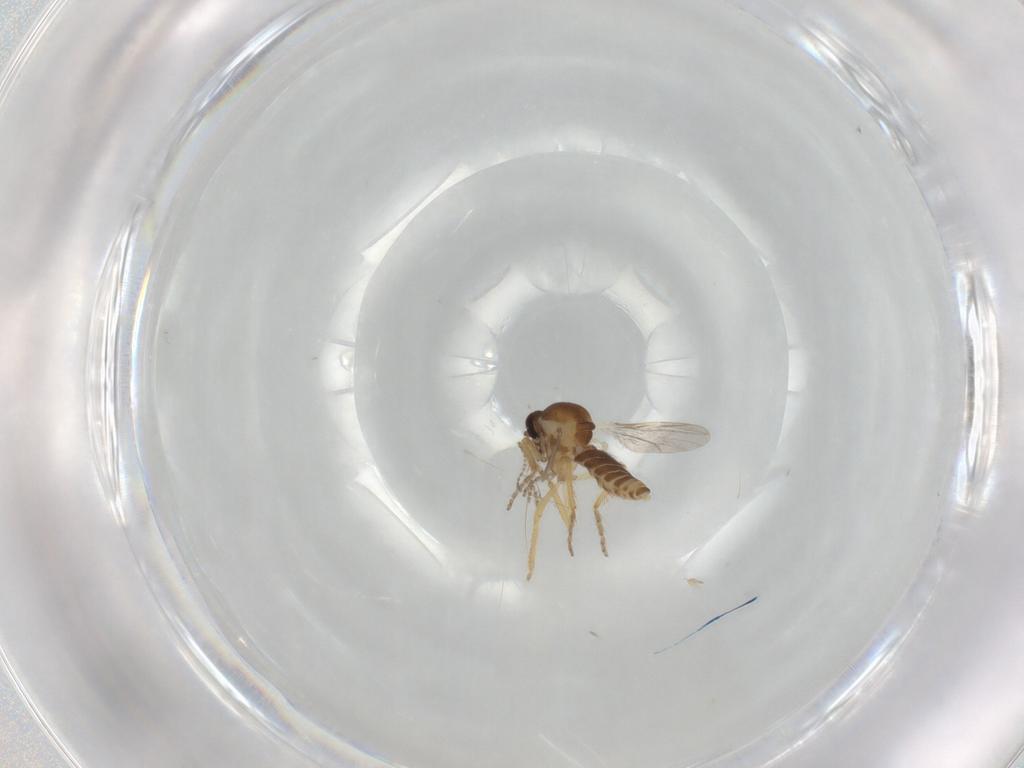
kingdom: Animalia
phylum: Arthropoda
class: Insecta
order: Diptera
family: Ceratopogonidae
